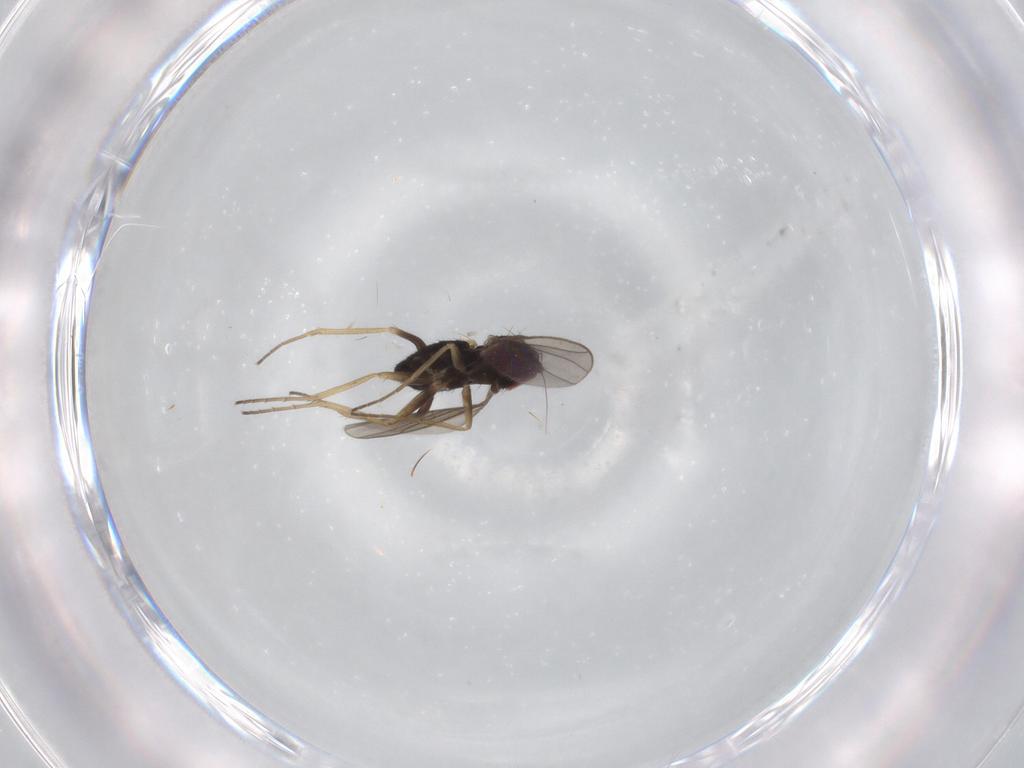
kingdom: Animalia
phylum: Arthropoda
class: Insecta
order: Diptera
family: Dolichopodidae
